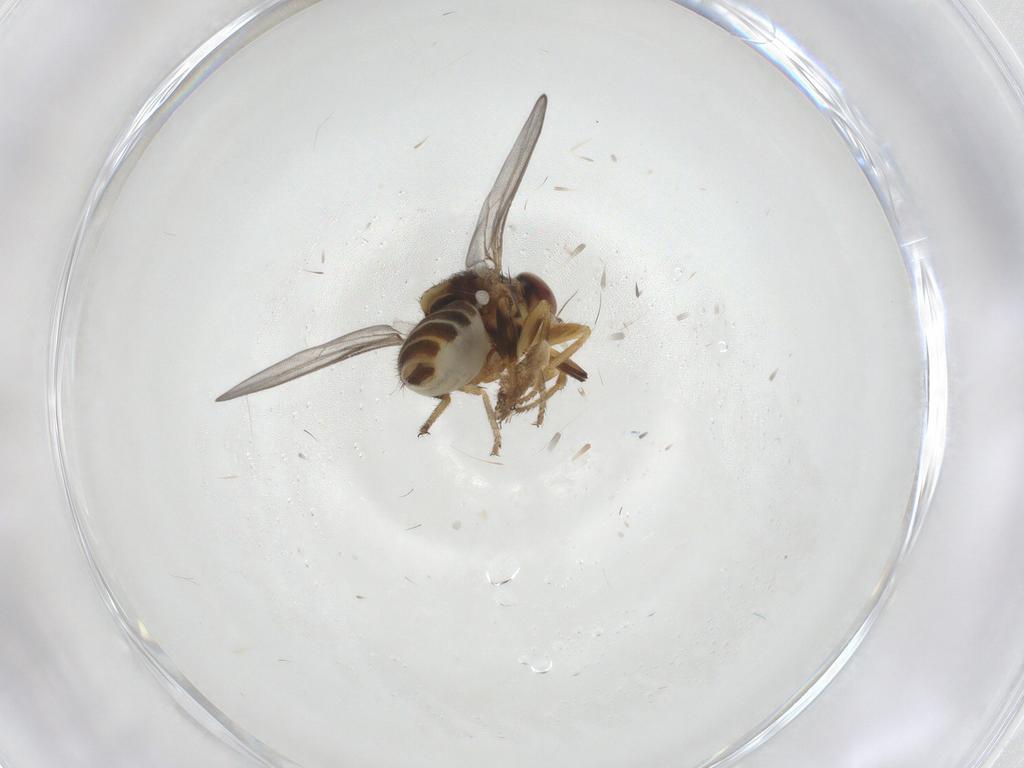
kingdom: Animalia
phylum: Arthropoda
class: Insecta
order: Diptera
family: Chloropidae
